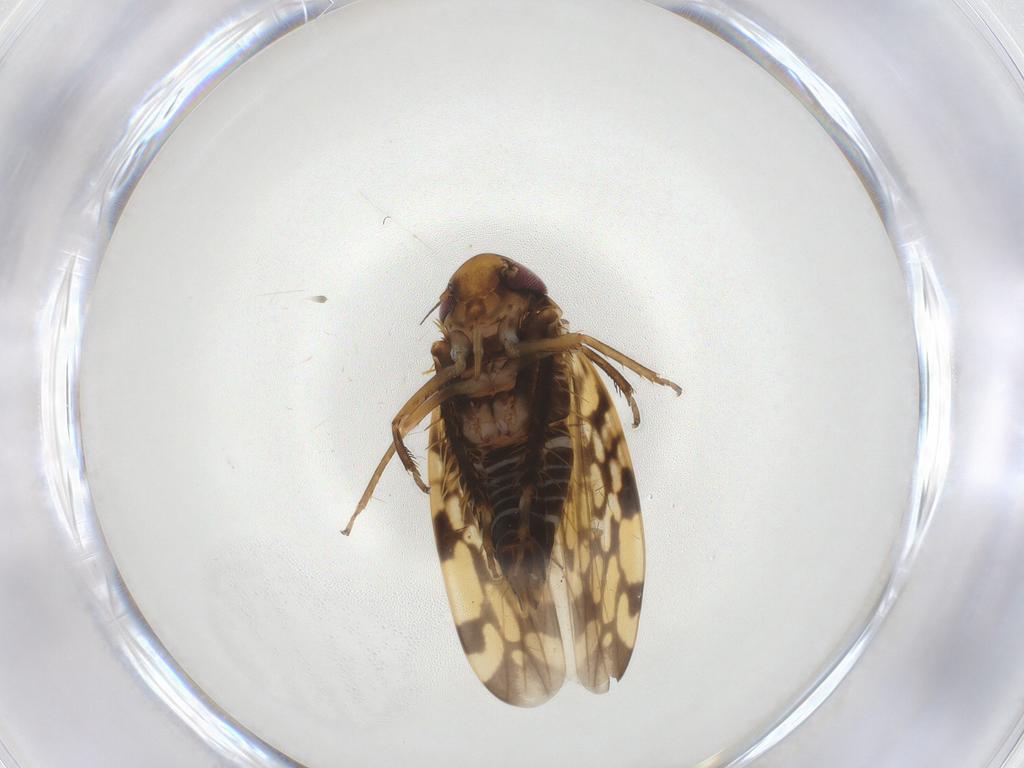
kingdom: Animalia
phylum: Arthropoda
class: Insecta
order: Hemiptera
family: Cicadellidae
